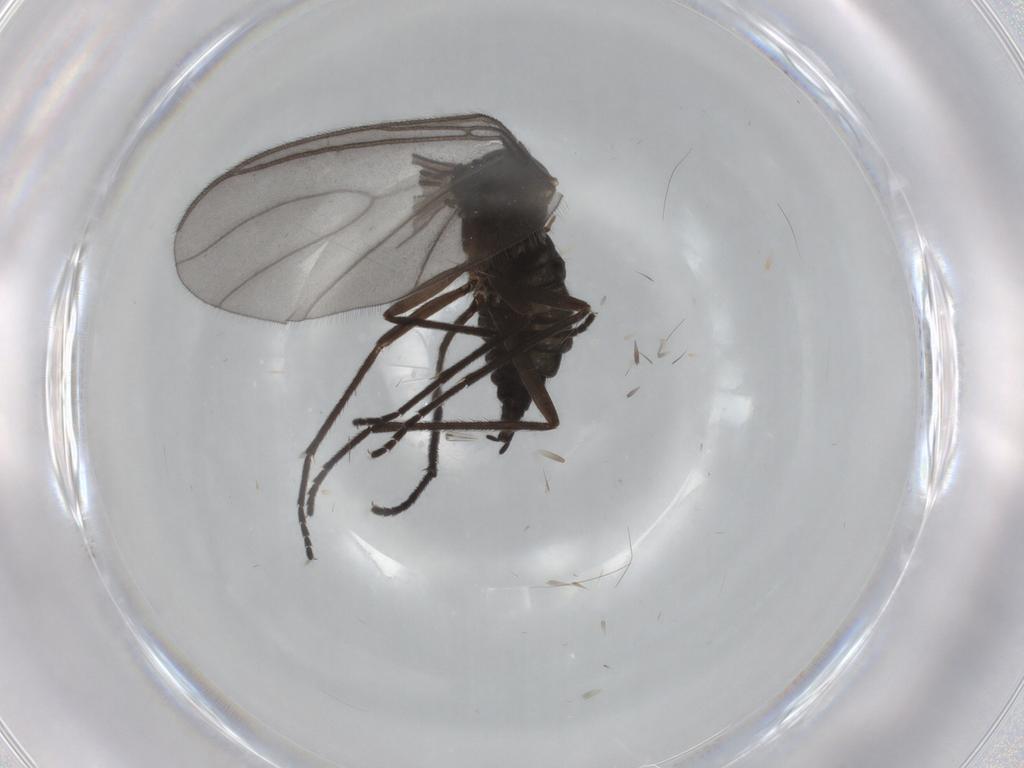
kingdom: Animalia
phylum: Arthropoda
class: Insecta
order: Diptera
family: Sciaridae
